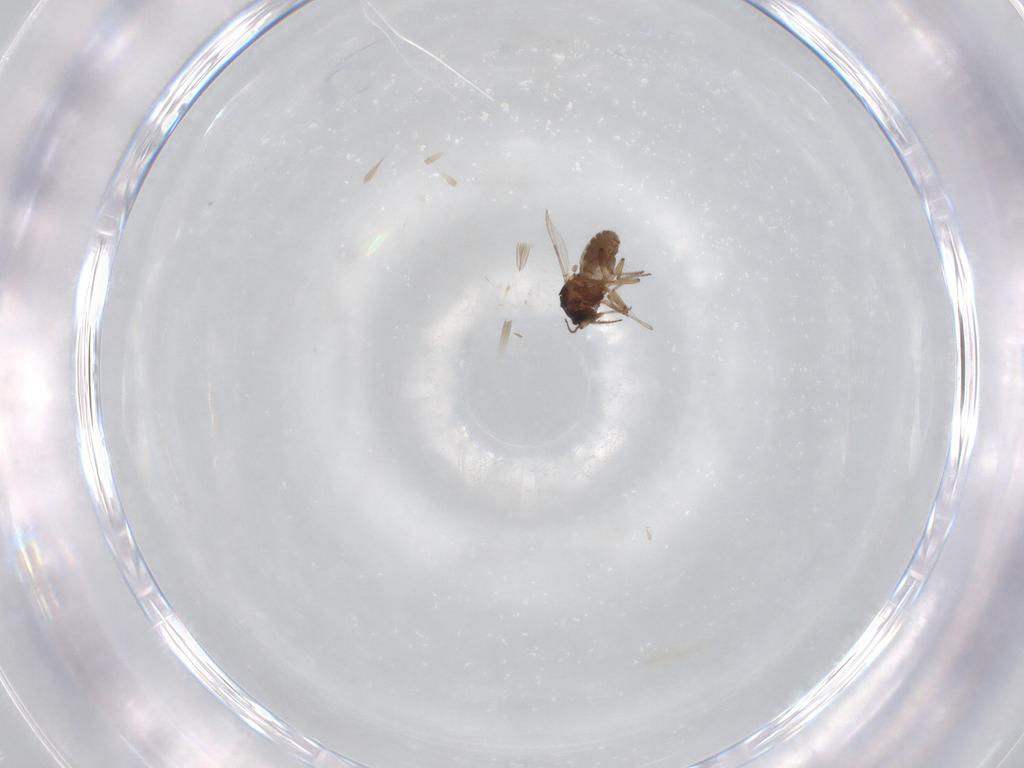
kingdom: Animalia
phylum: Arthropoda
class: Insecta
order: Diptera
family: Ceratopogonidae
